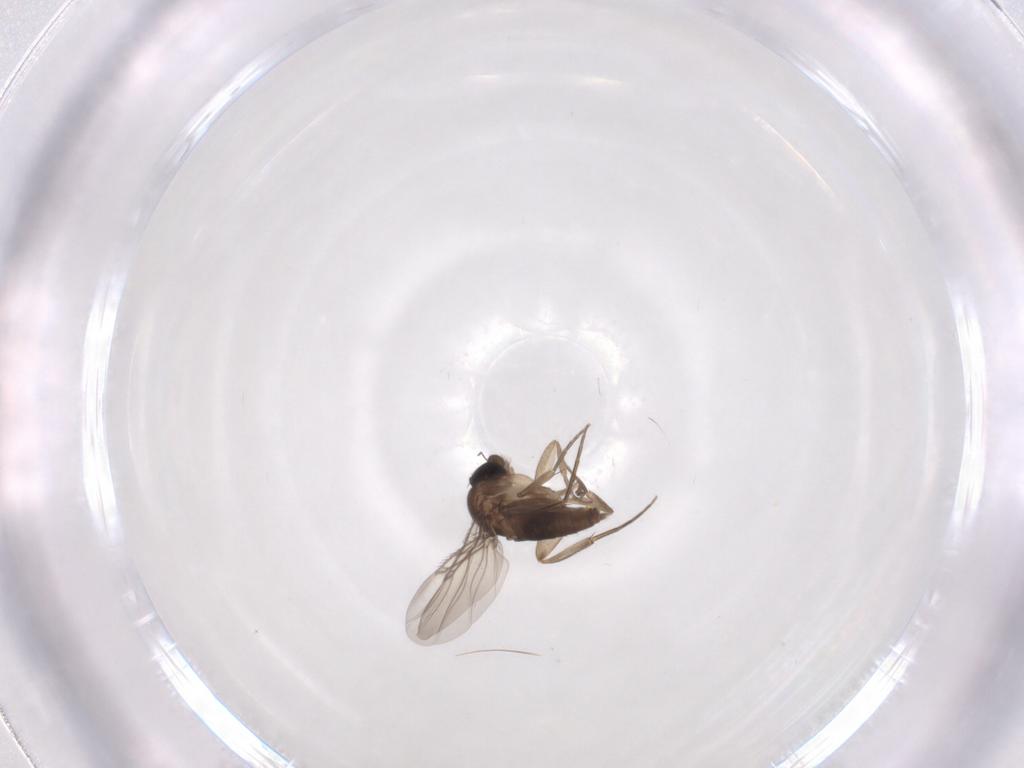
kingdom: Animalia
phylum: Arthropoda
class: Insecta
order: Diptera
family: Phoridae
